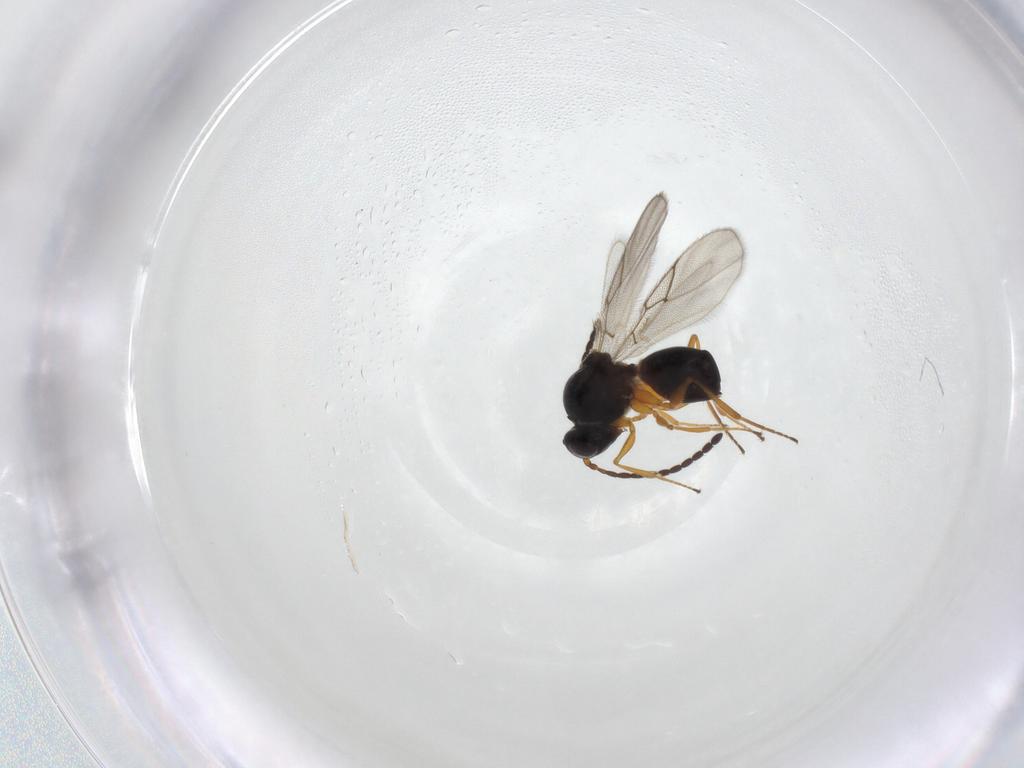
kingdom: Animalia
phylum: Arthropoda
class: Insecta
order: Hymenoptera
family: Figitidae
